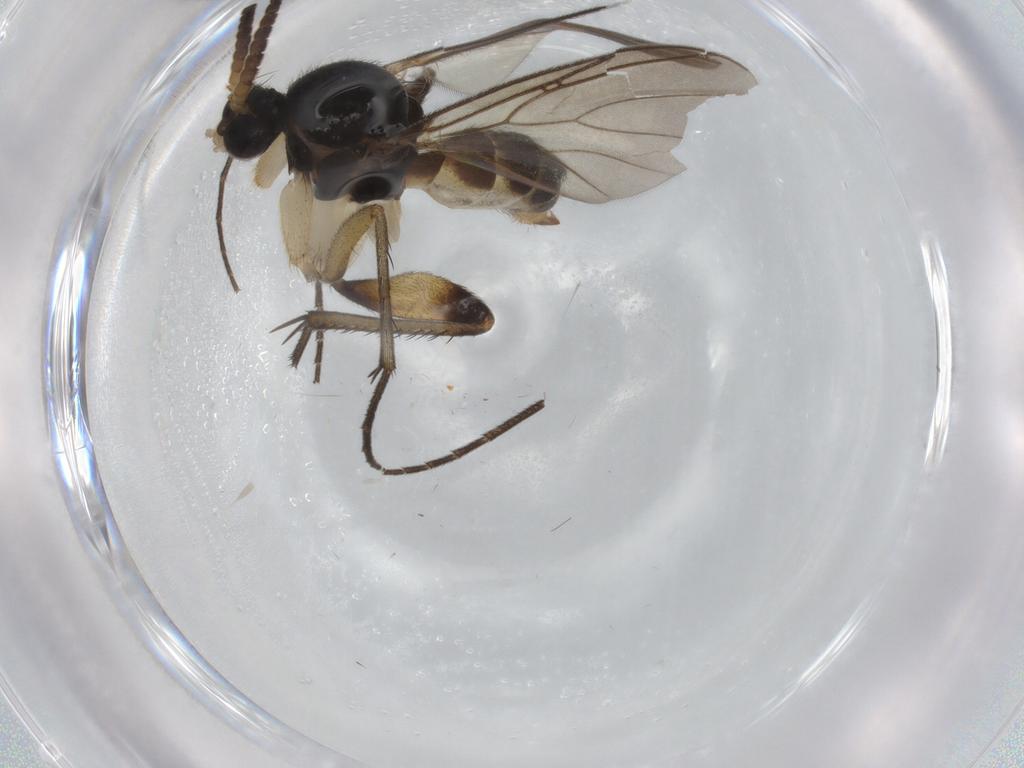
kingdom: Animalia
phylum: Arthropoda
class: Insecta
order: Diptera
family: Phoridae
